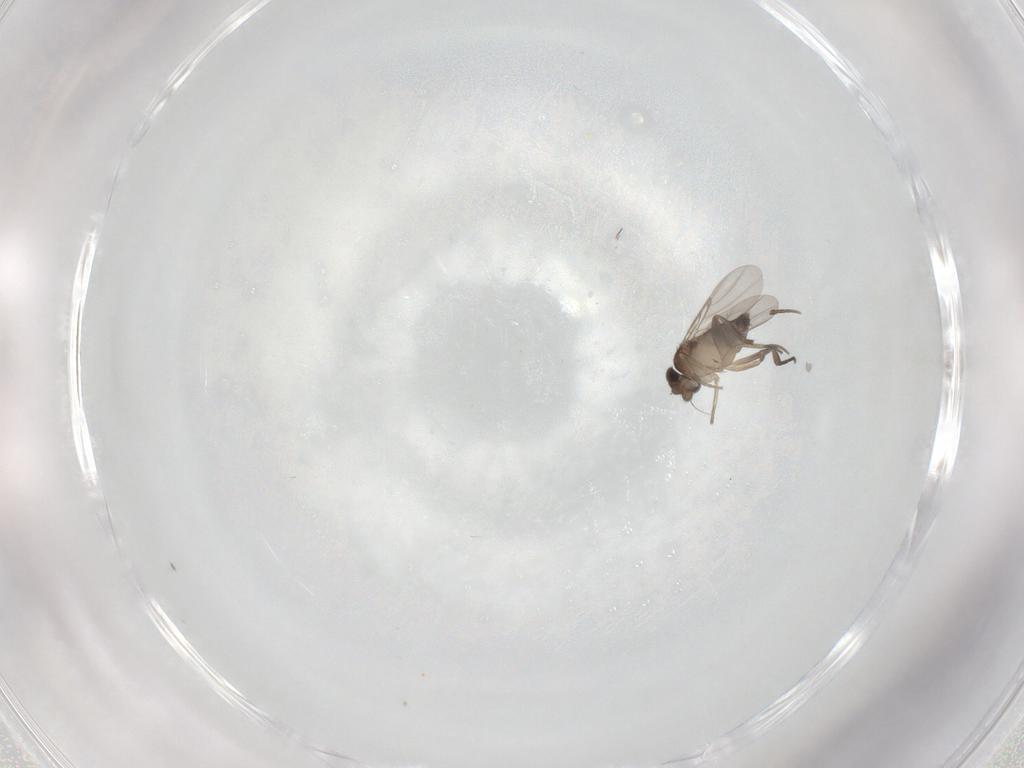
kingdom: Animalia
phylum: Arthropoda
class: Insecta
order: Diptera
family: Phoridae
